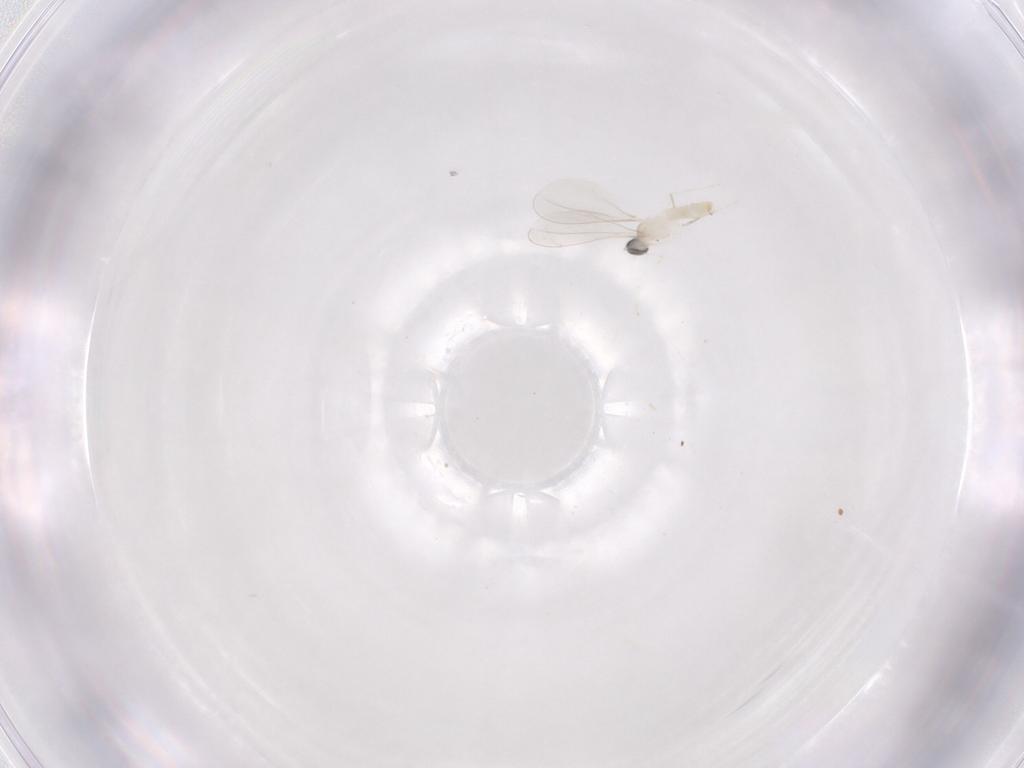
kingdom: Animalia
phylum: Arthropoda
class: Insecta
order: Diptera
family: Cecidomyiidae
